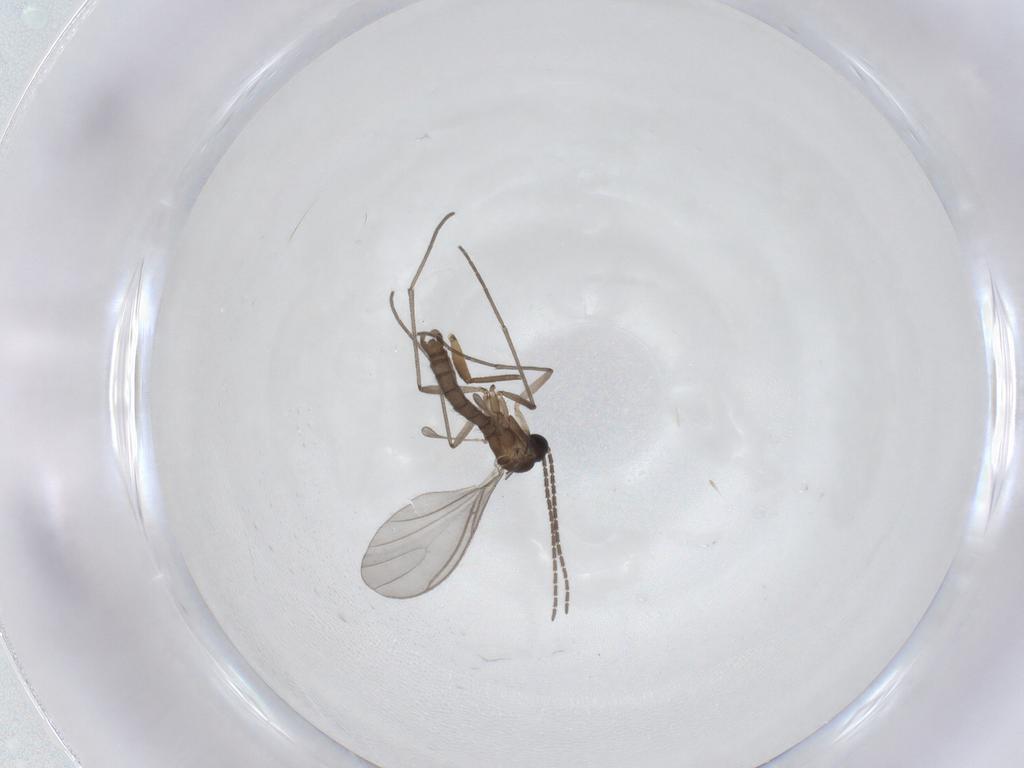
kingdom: Animalia
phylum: Arthropoda
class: Insecta
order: Diptera
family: Sciaridae
